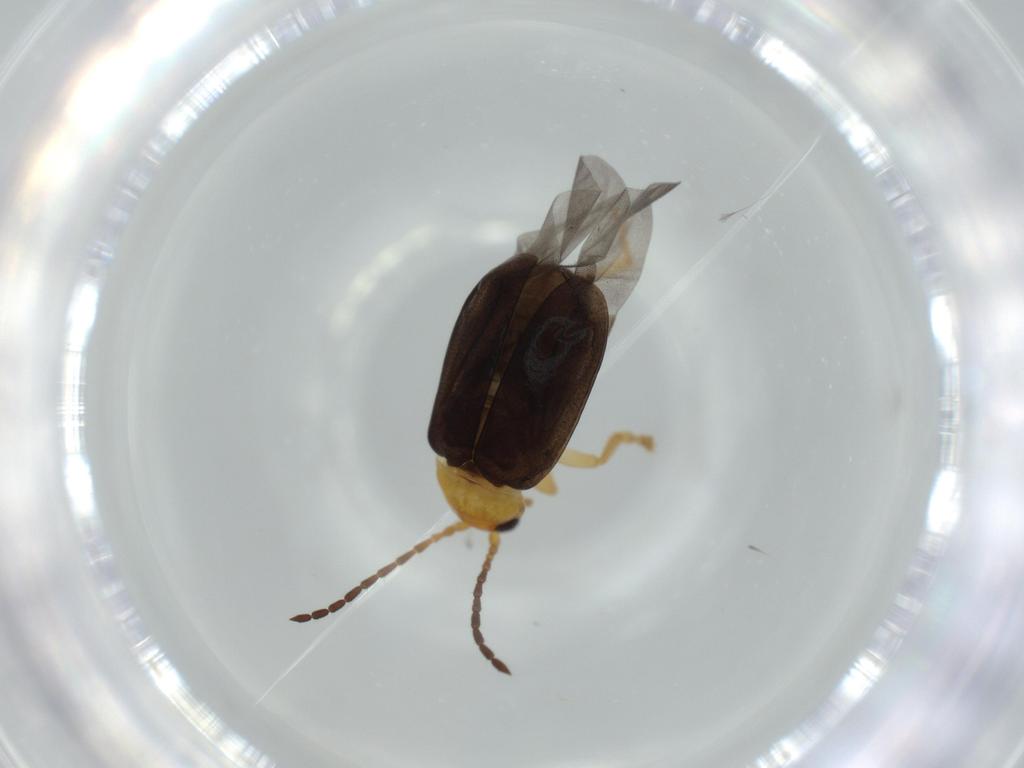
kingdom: Animalia
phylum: Arthropoda
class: Insecta
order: Coleoptera
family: Chrysomelidae
